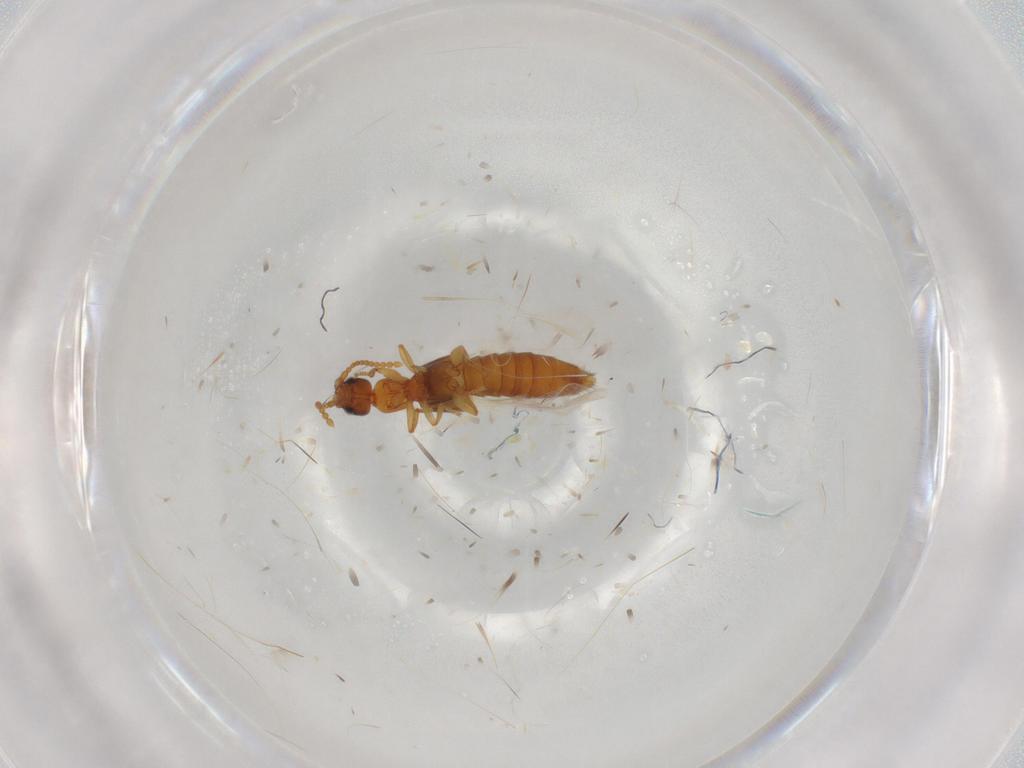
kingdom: Animalia
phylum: Arthropoda
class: Insecta
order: Coleoptera
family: Staphylinidae
